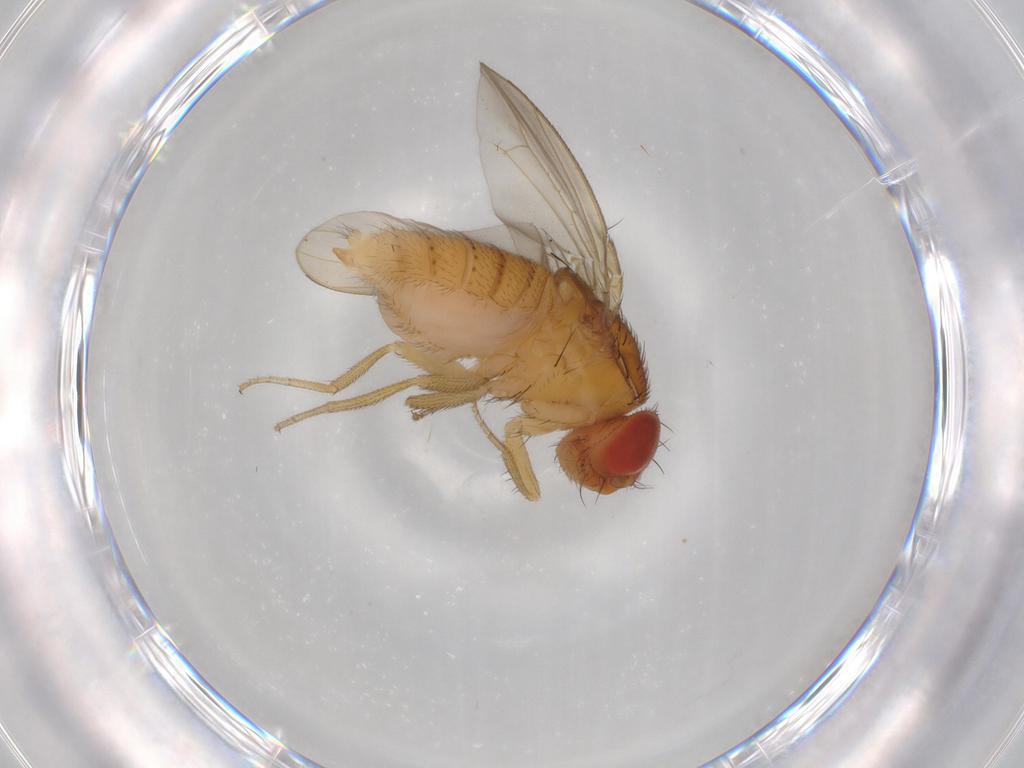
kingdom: Animalia
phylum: Arthropoda
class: Insecta
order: Diptera
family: Drosophilidae
